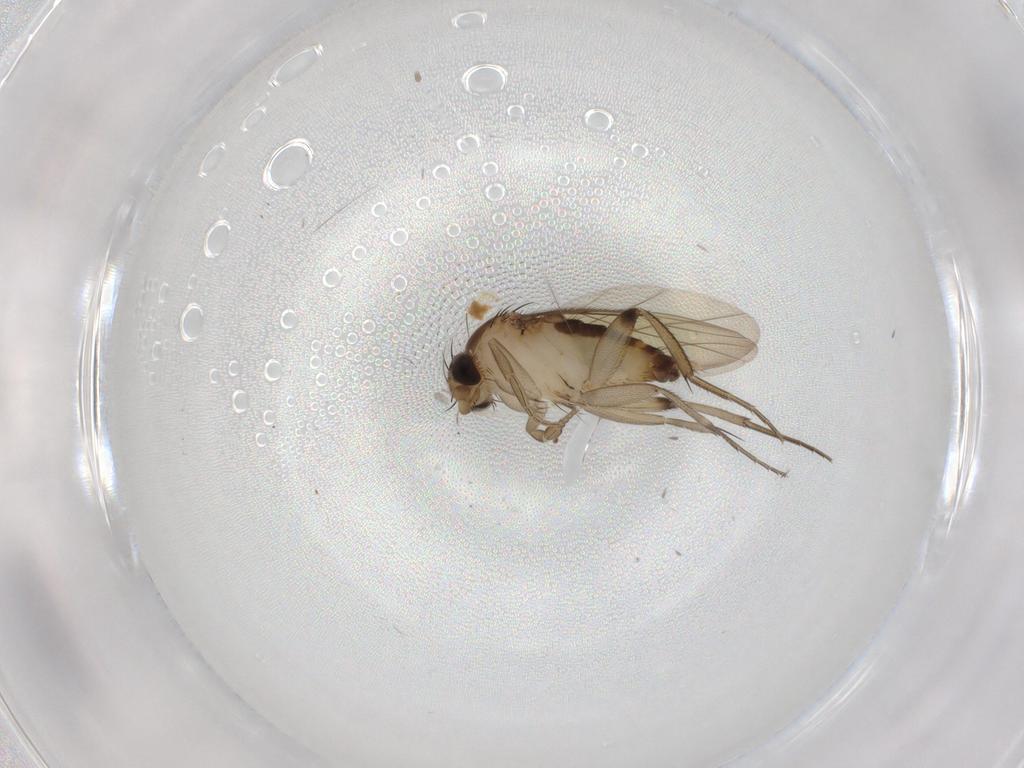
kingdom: Animalia
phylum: Arthropoda
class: Insecta
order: Diptera
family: Phoridae
